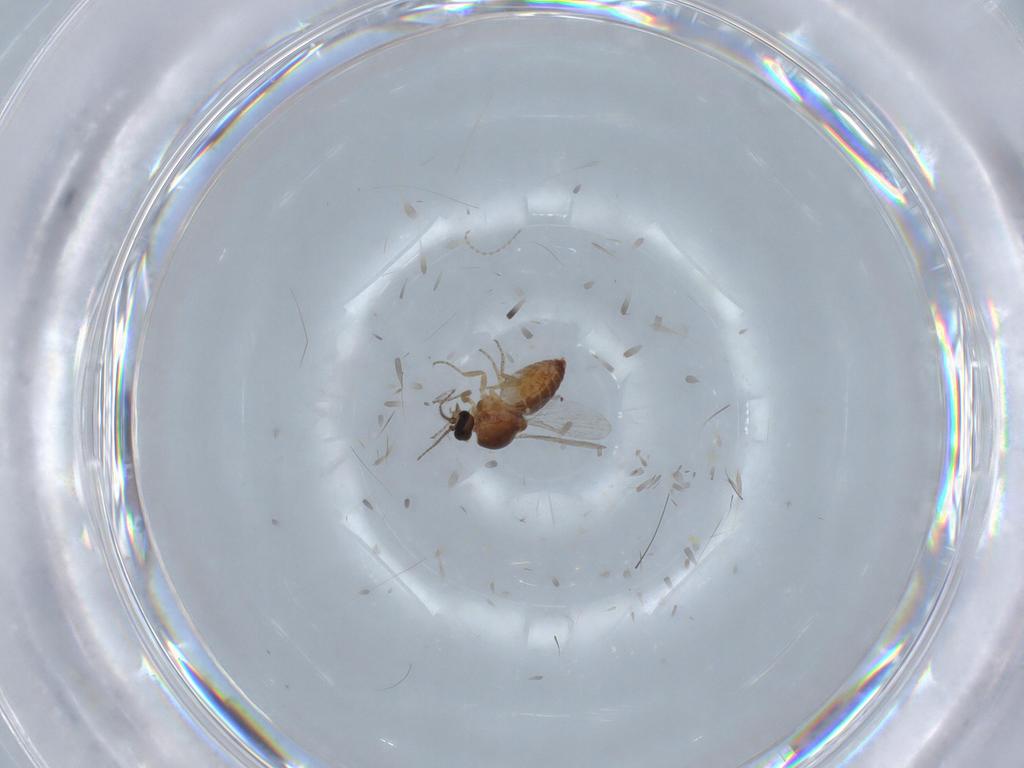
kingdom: Animalia
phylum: Arthropoda
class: Insecta
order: Diptera
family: Ceratopogonidae
